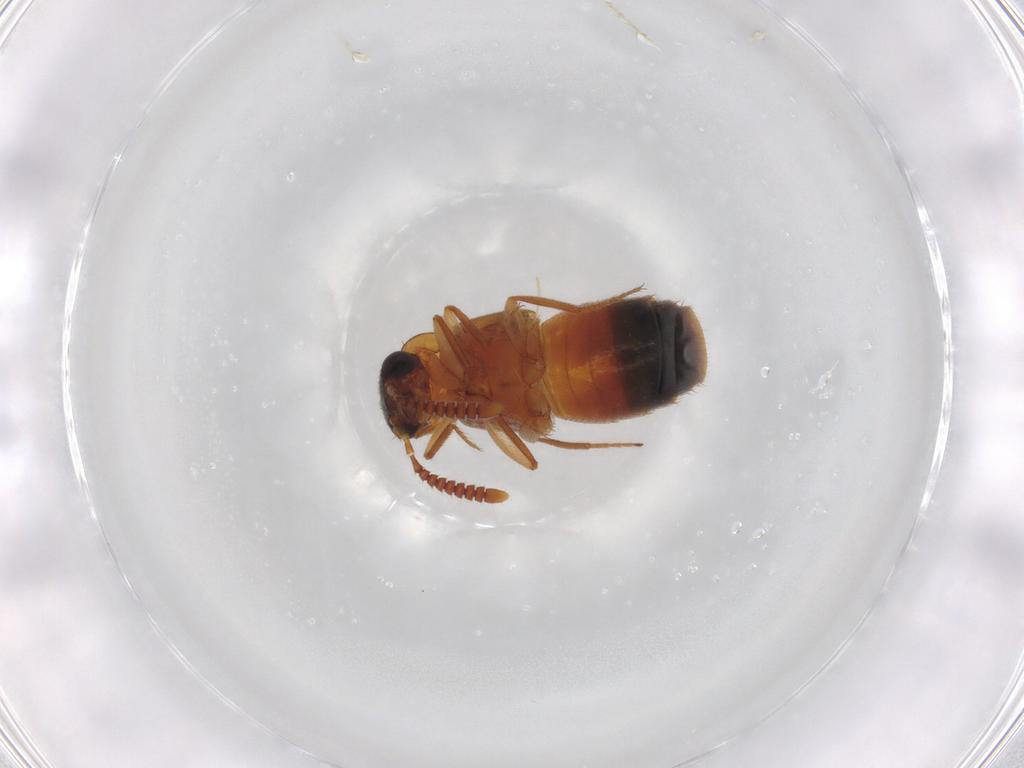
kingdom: Animalia
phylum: Arthropoda
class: Insecta
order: Coleoptera
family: Staphylinidae
